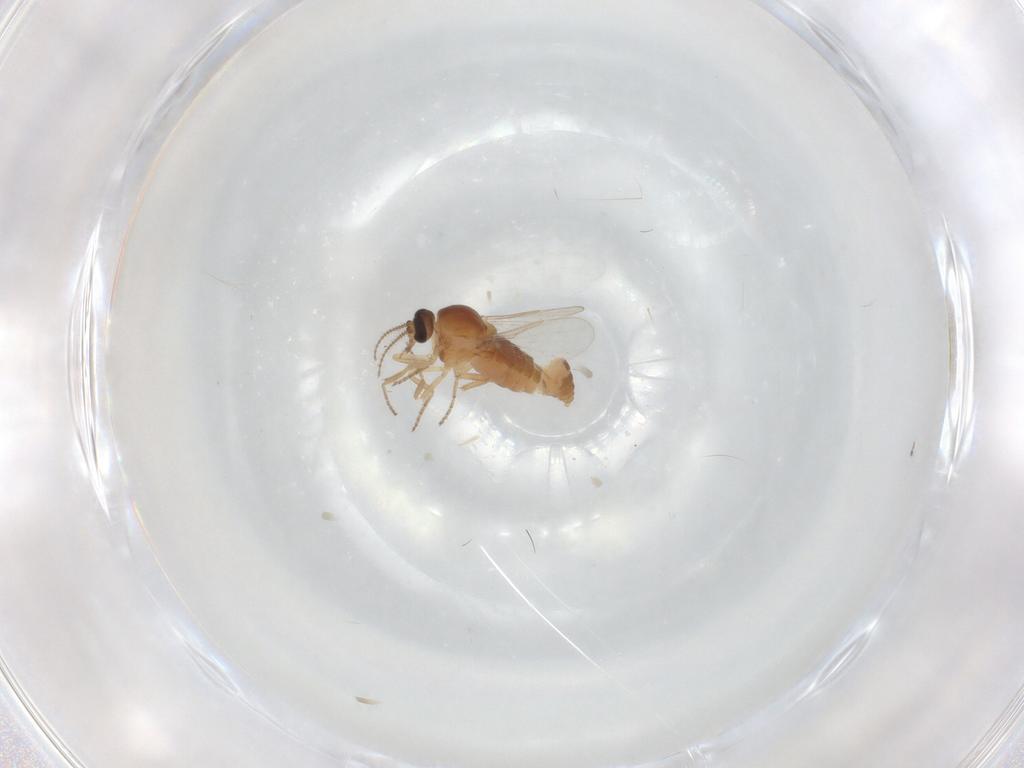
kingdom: Animalia
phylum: Arthropoda
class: Insecta
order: Diptera
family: Ceratopogonidae
